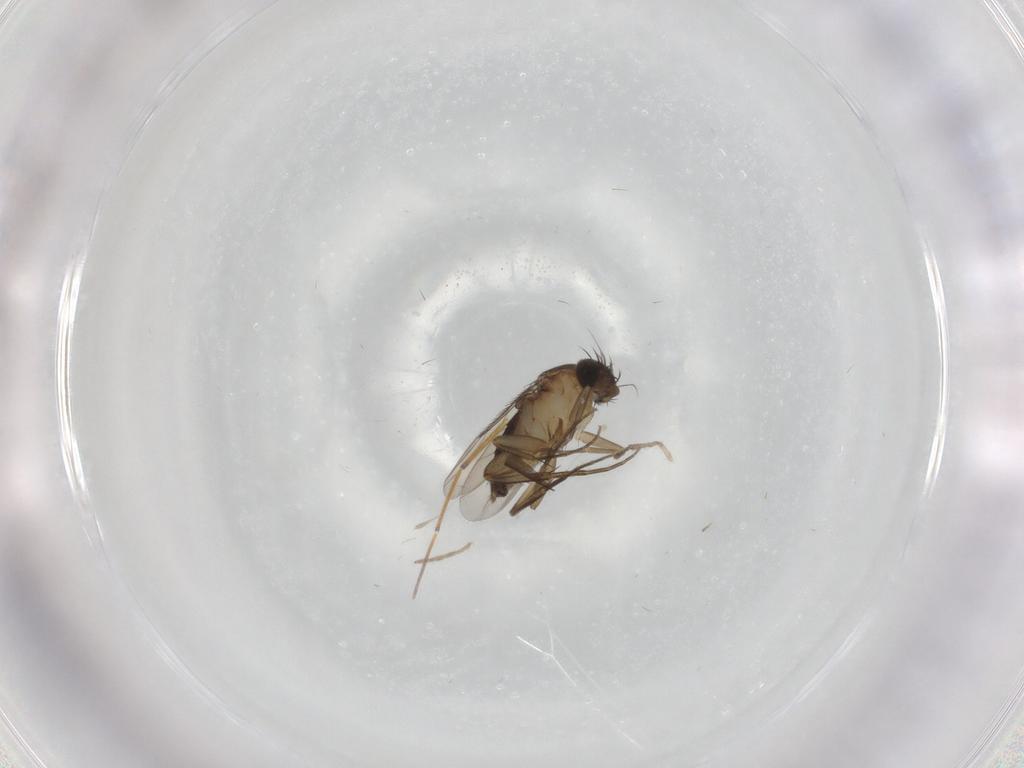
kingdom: Animalia
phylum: Arthropoda
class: Insecta
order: Diptera
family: Phoridae
